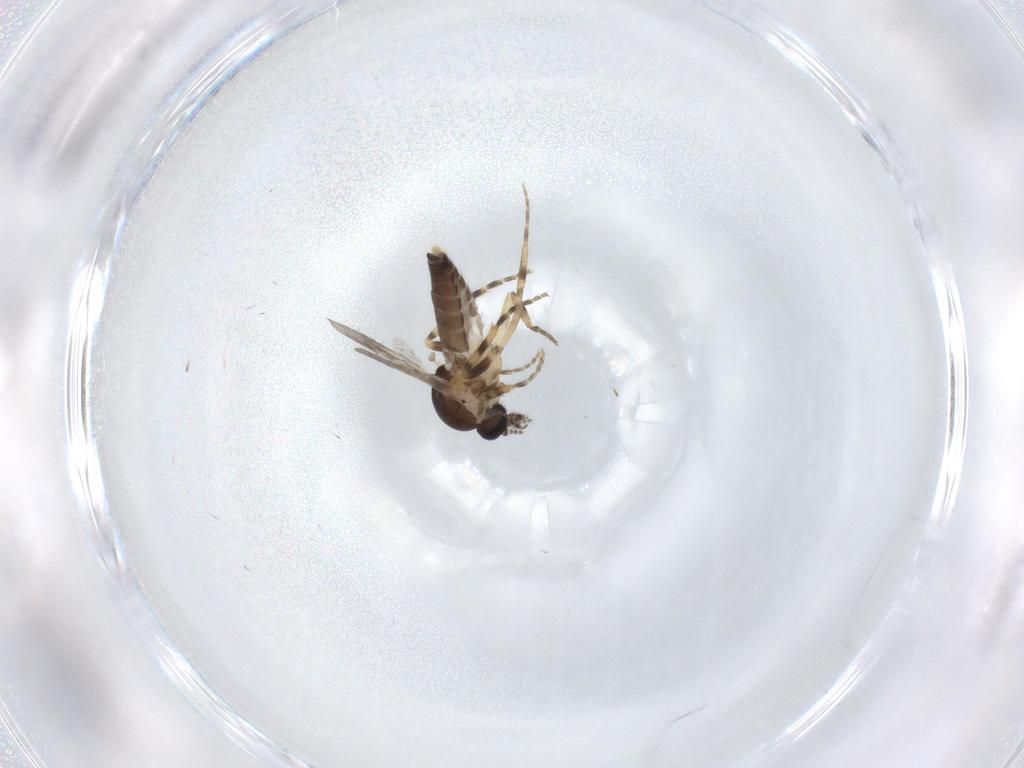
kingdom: Animalia
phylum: Arthropoda
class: Insecta
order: Diptera
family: Ceratopogonidae
